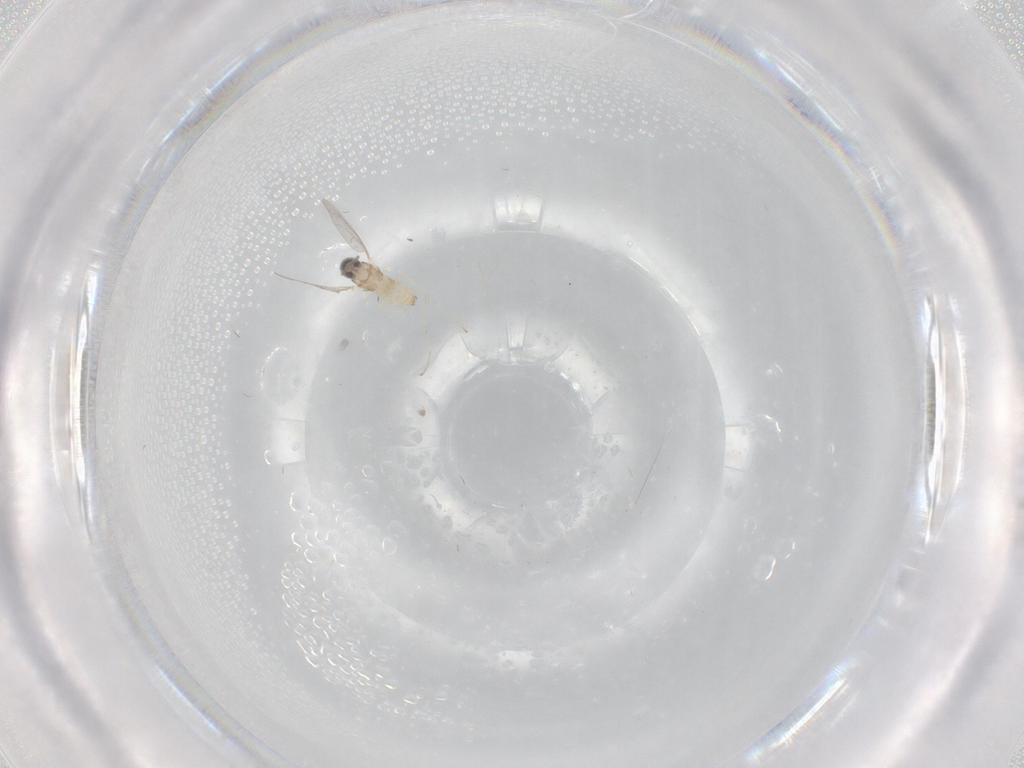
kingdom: Animalia
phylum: Arthropoda
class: Insecta
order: Diptera
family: Cecidomyiidae
